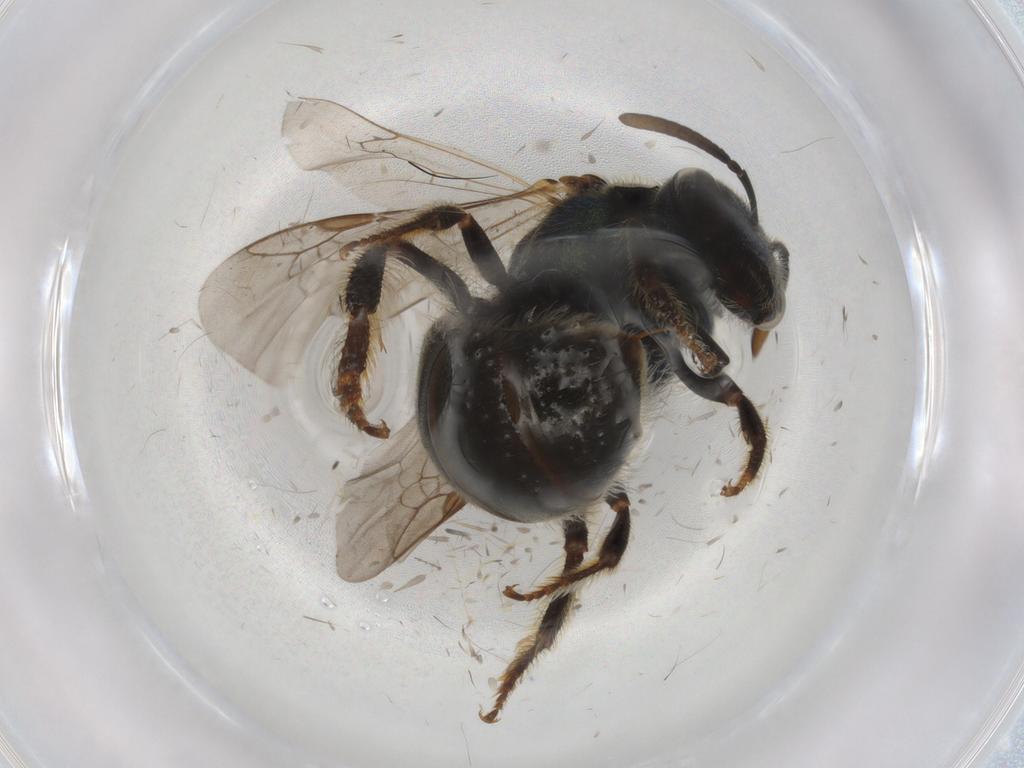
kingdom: Animalia
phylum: Arthropoda
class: Insecta
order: Hymenoptera
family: Halictidae
